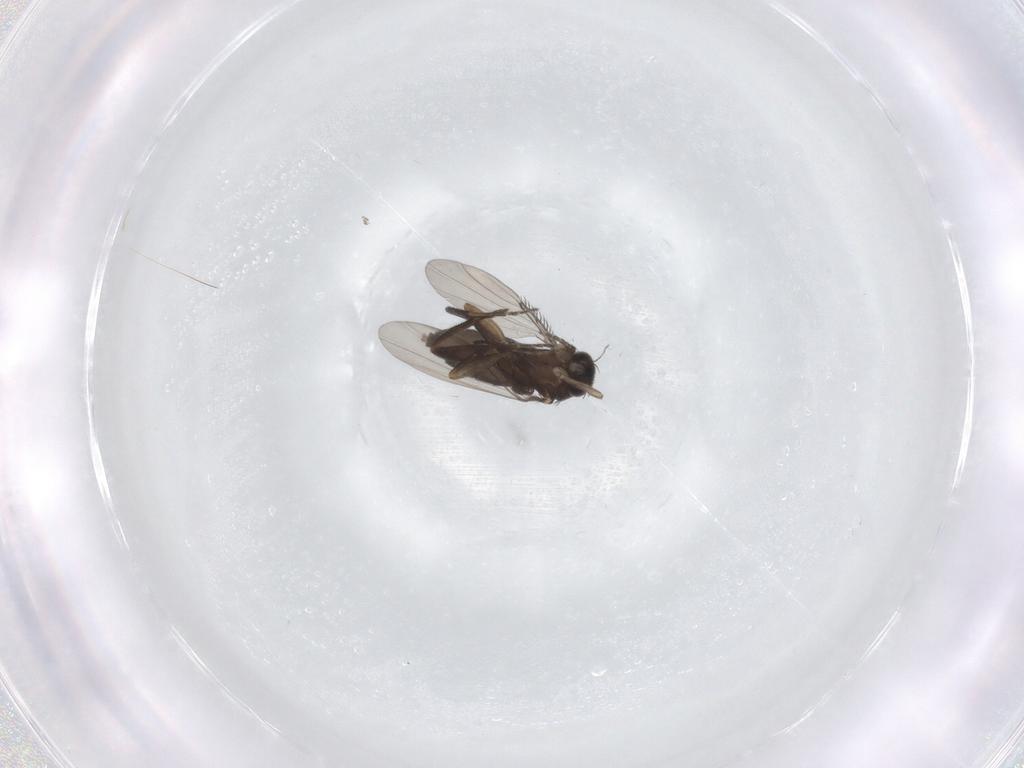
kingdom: Animalia
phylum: Arthropoda
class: Insecta
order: Diptera
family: Phoridae
